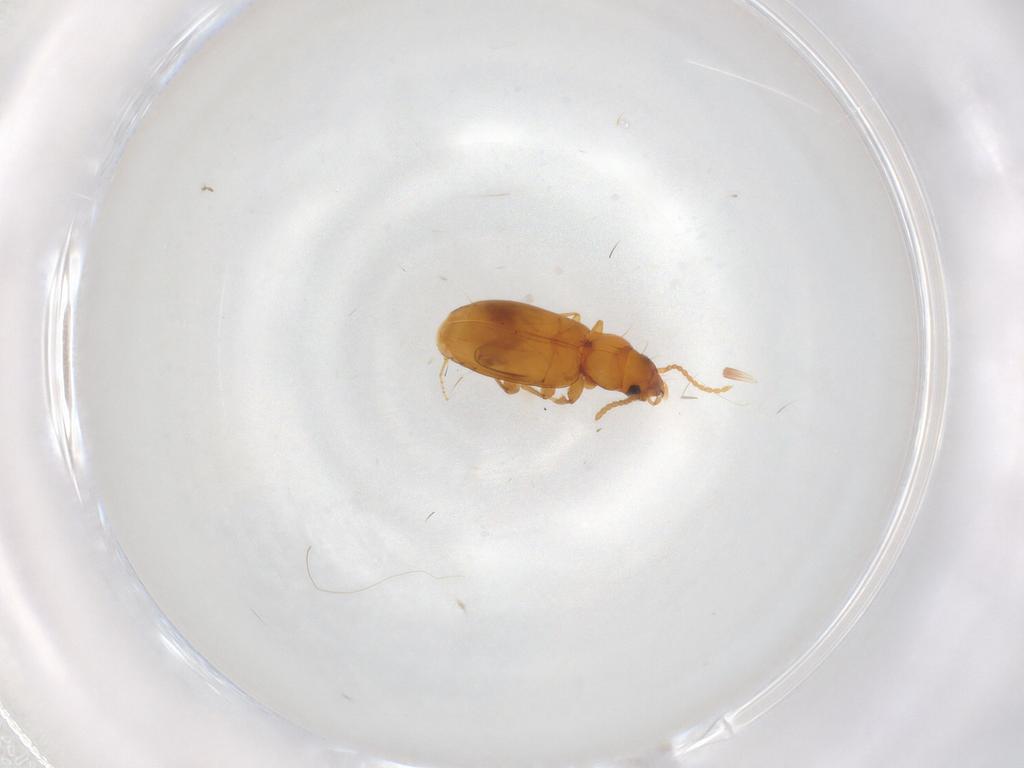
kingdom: Animalia
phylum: Arthropoda
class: Insecta
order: Coleoptera
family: Carabidae
